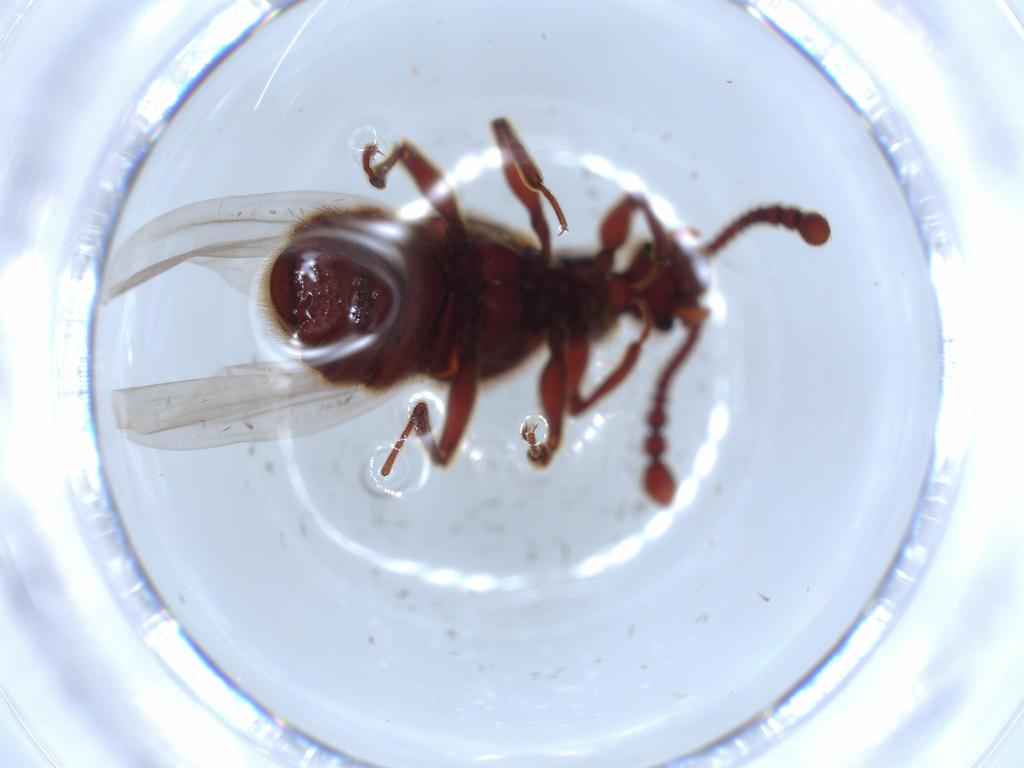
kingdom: Animalia
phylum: Arthropoda
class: Insecta
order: Coleoptera
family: Staphylinidae
